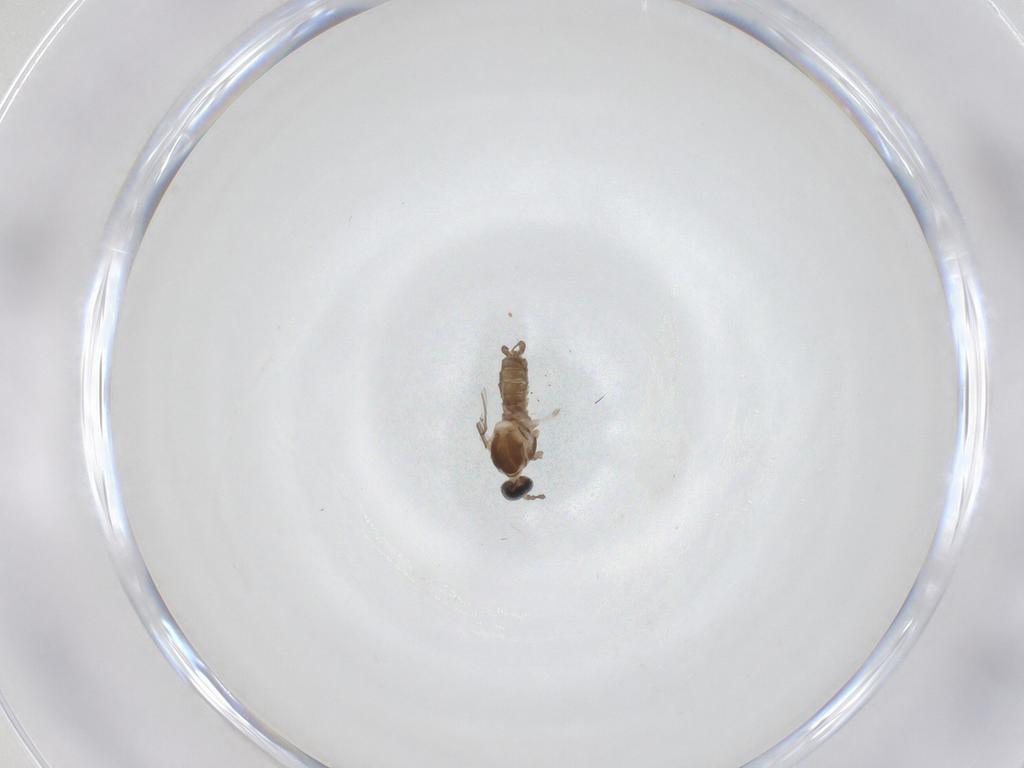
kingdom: Animalia
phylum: Arthropoda
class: Insecta
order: Diptera
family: Cecidomyiidae
